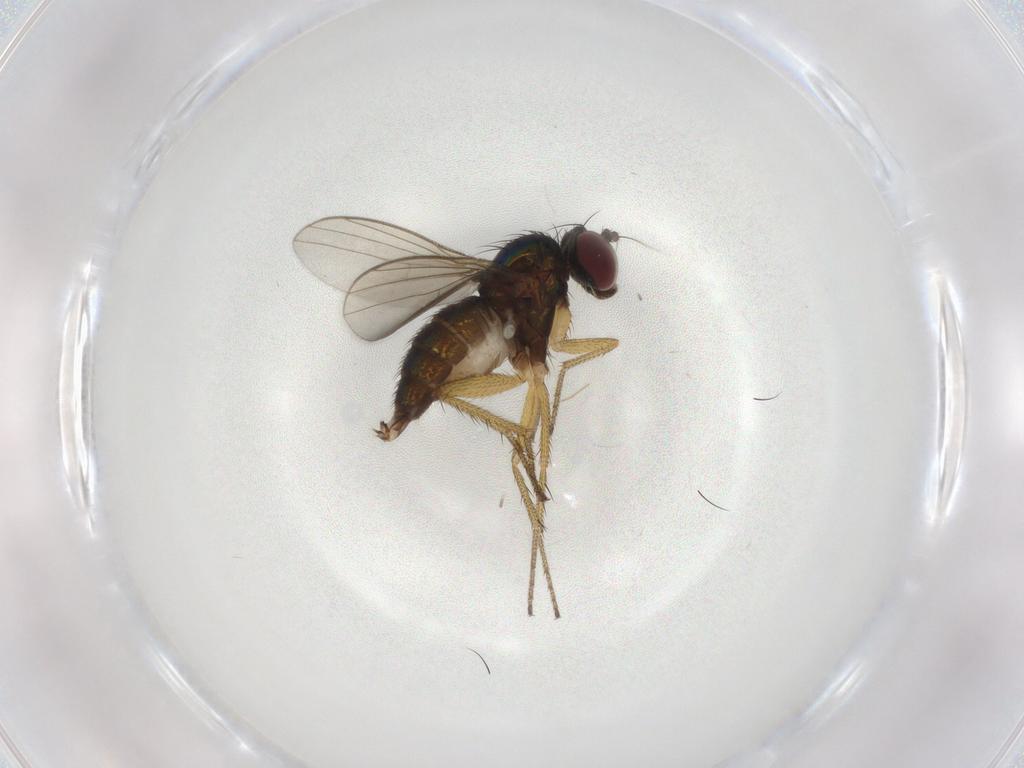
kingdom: Animalia
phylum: Arthropoda
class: Insecta
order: Diptera
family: Dolichopodidae
